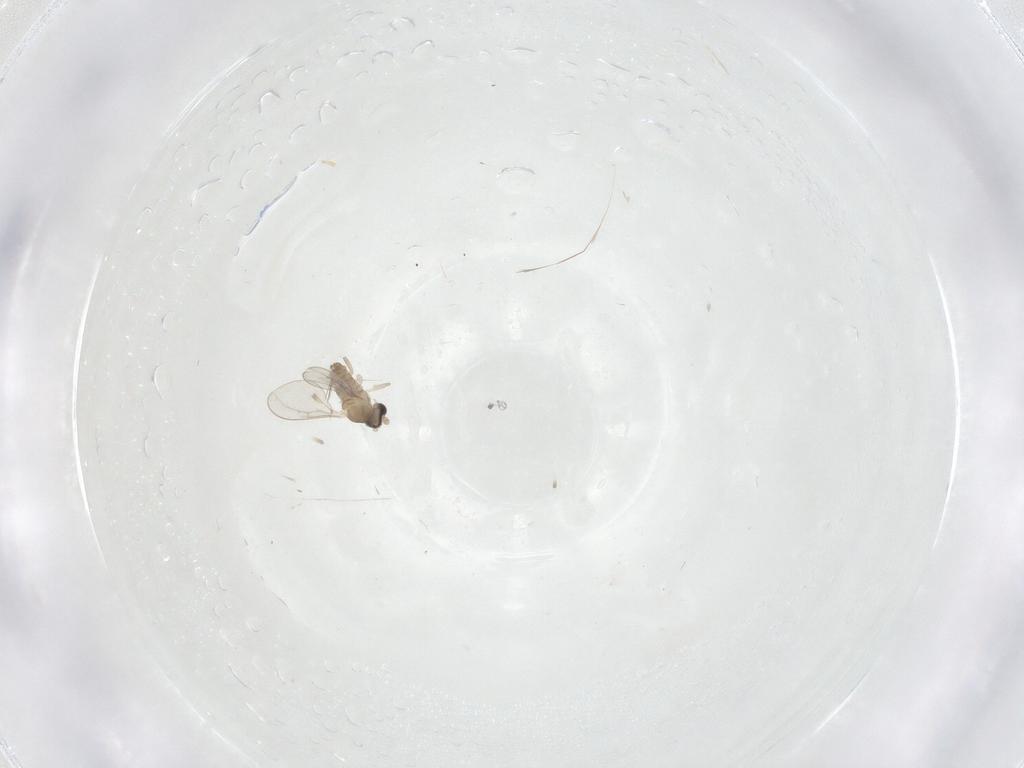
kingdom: Animalia
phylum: Arthropoda
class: Insecta
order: Diptera
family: Cecidomyiidae
